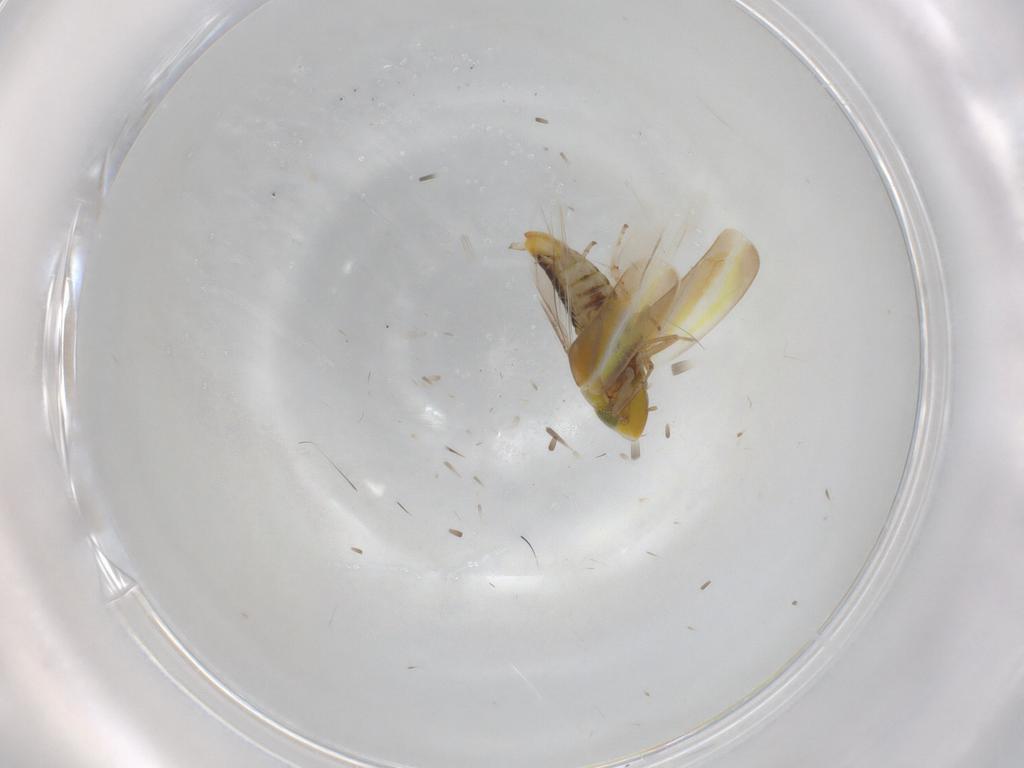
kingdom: Animalia
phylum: Arthropoda
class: Insecta
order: Hemiptera
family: Cicadellidae
